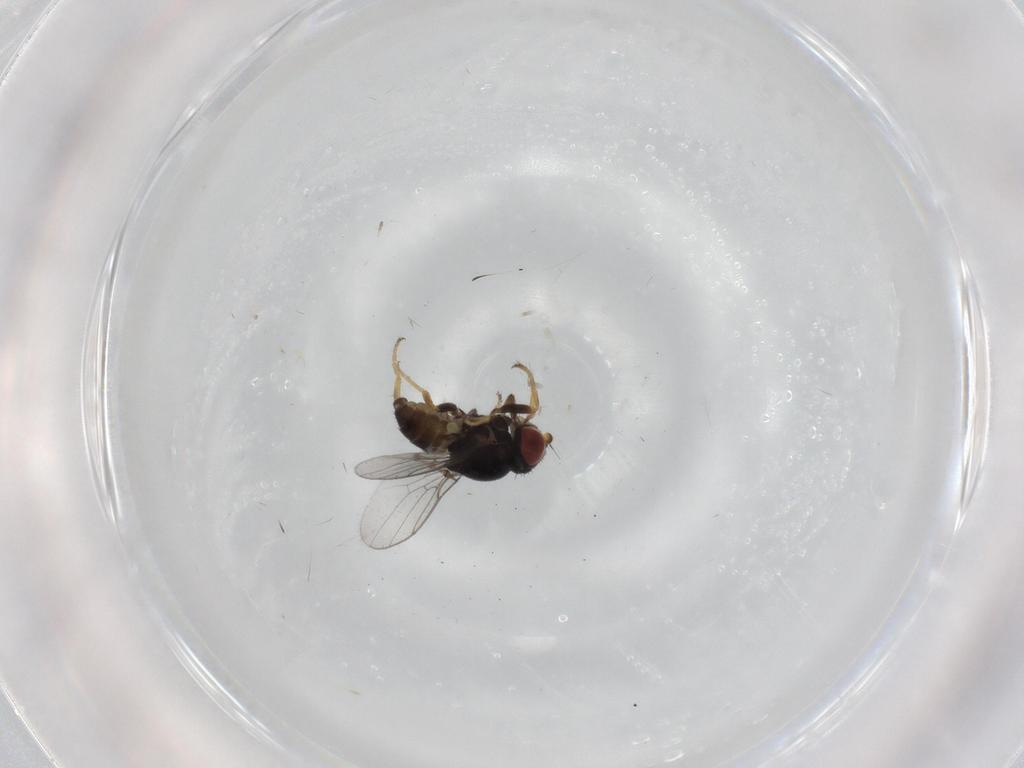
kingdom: Animalia
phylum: Arthropoda
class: Insecta
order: Diptera
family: Chloropidae
